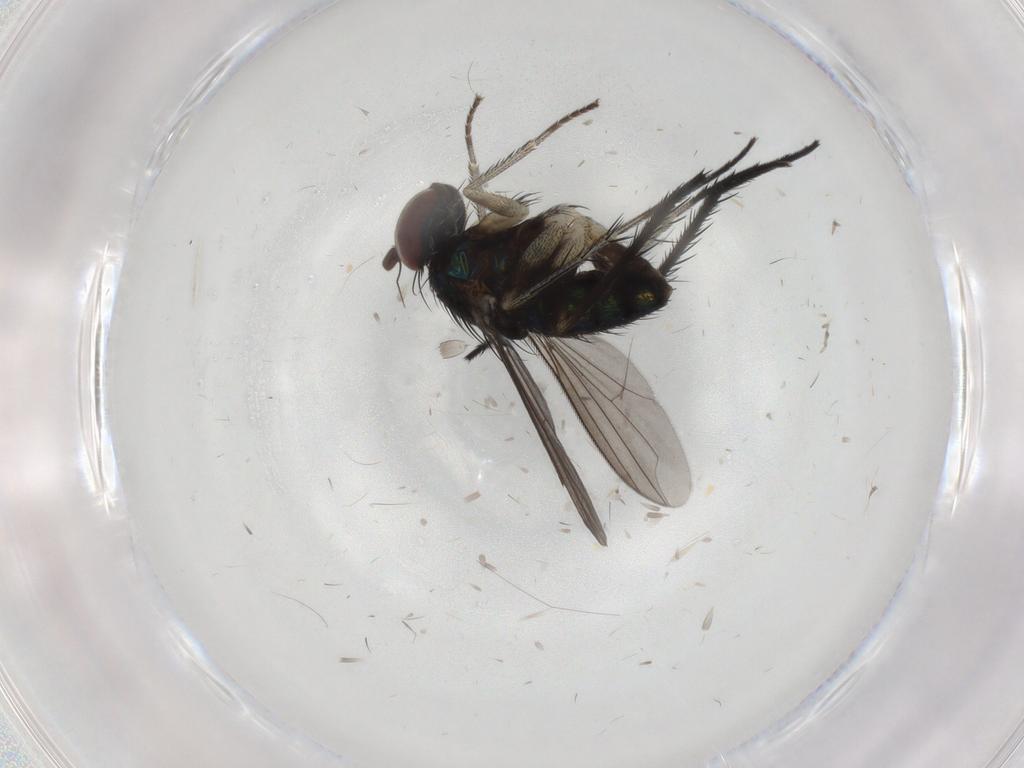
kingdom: Animalia
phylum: Arthropoda
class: Insecta
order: Diptera
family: Dolichopodidae
